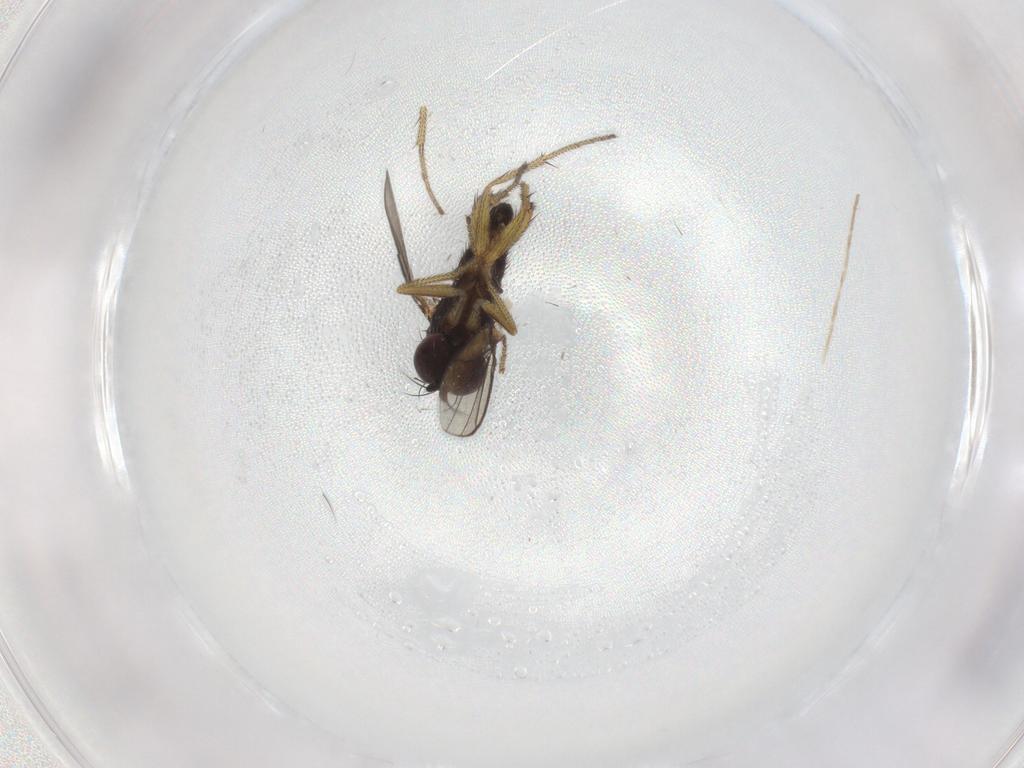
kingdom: Animalia
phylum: Arthropoda
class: Insecta
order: Diptera
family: Dolichopodidae
